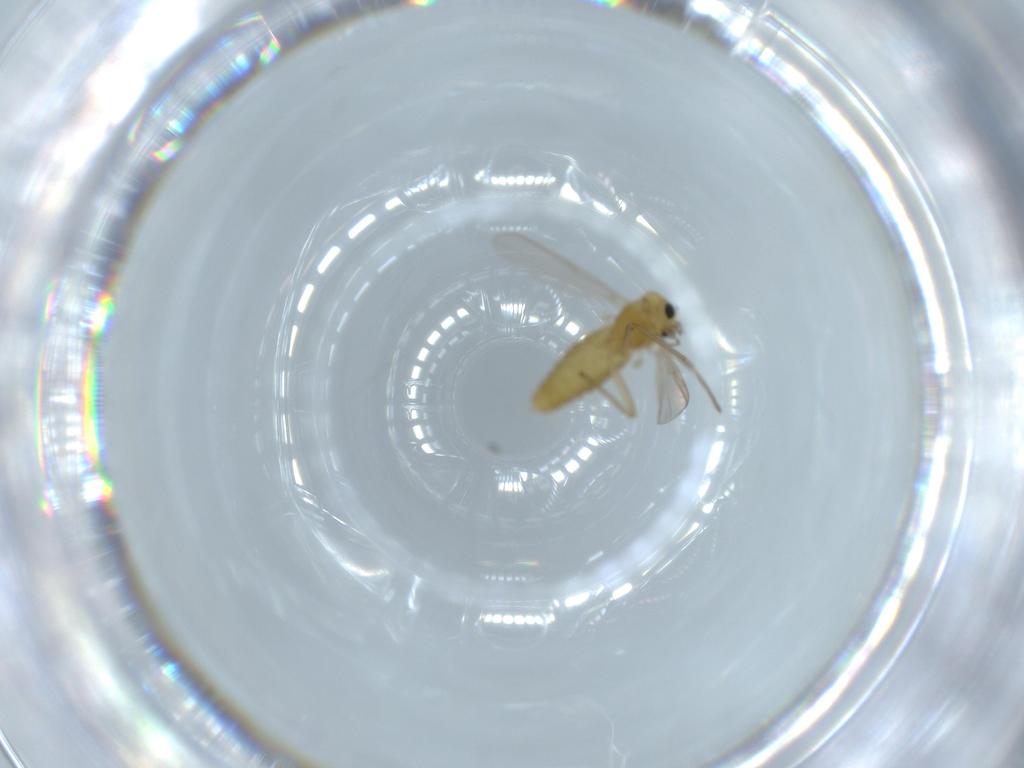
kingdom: Animalia
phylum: Arthropoda
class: Insecta
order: Diptera
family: Chironomidae
